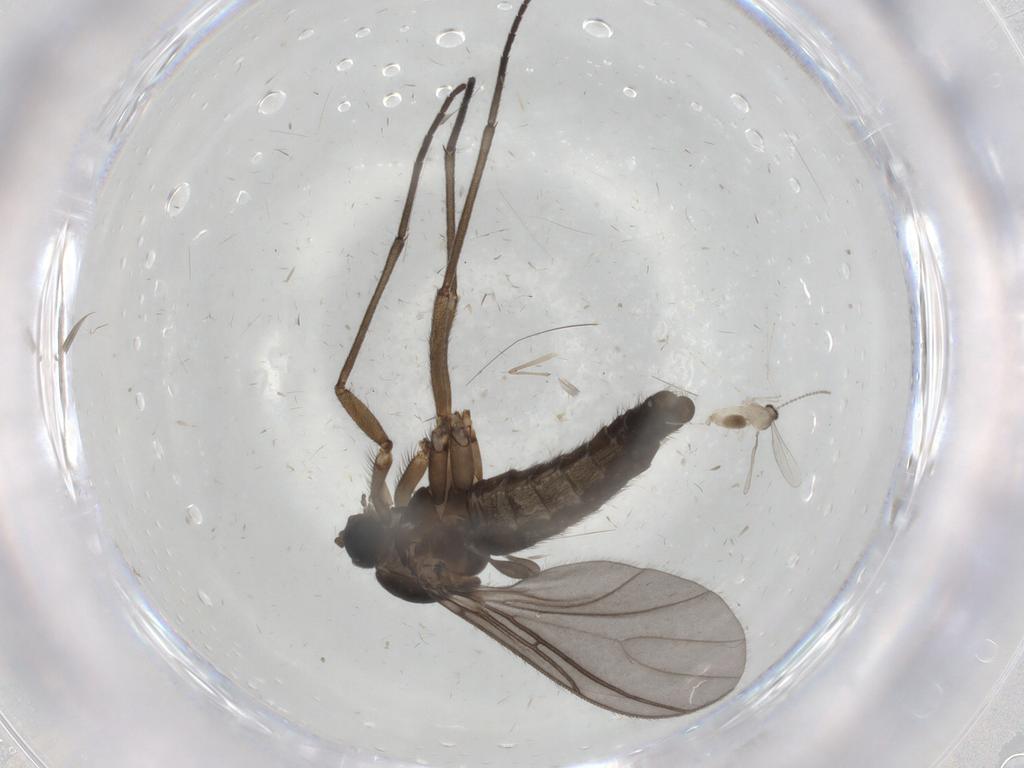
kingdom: Animalia
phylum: Arthropoda
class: Insecta
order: Diptera
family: Sciaridae
